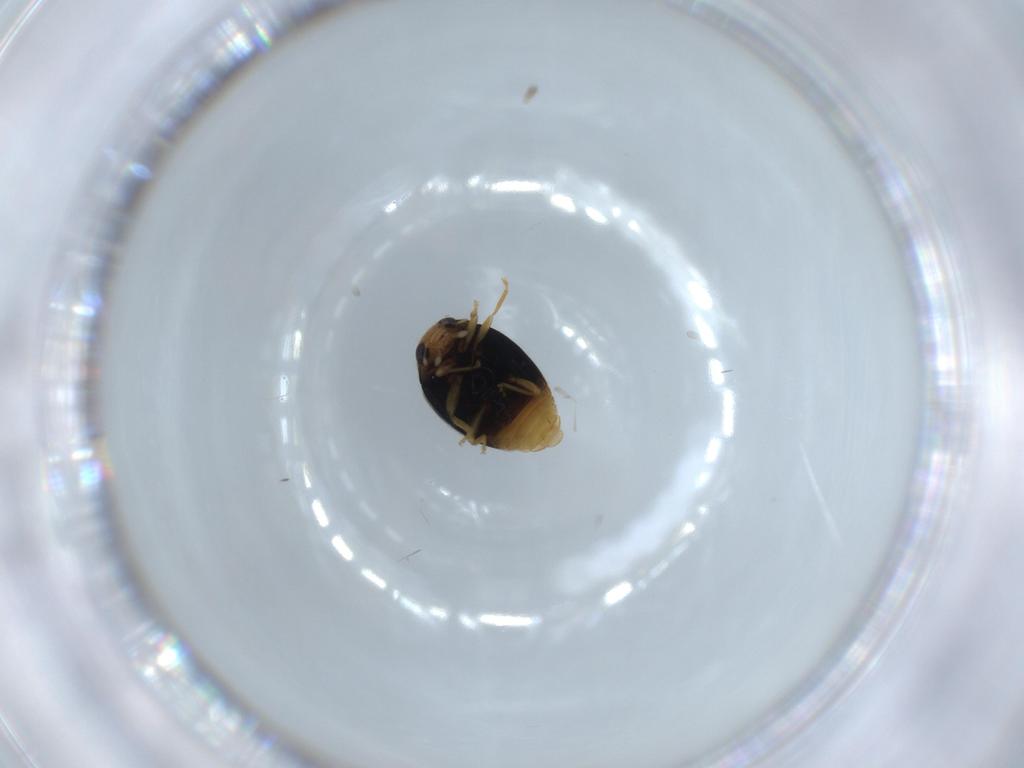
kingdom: Animalia
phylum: Arthropoda
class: Insecta
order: Coleoptera
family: Coccinellidae
